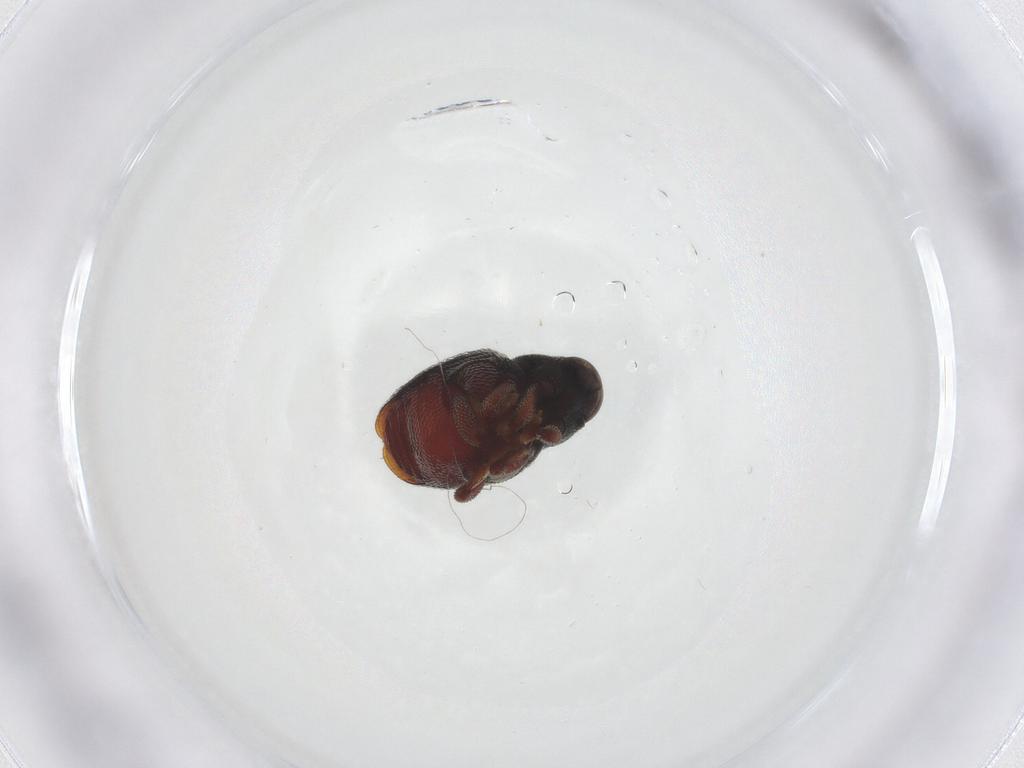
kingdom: Animalia
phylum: Arthropoda
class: Insecta
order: Coleoptera
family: Curculionidae
